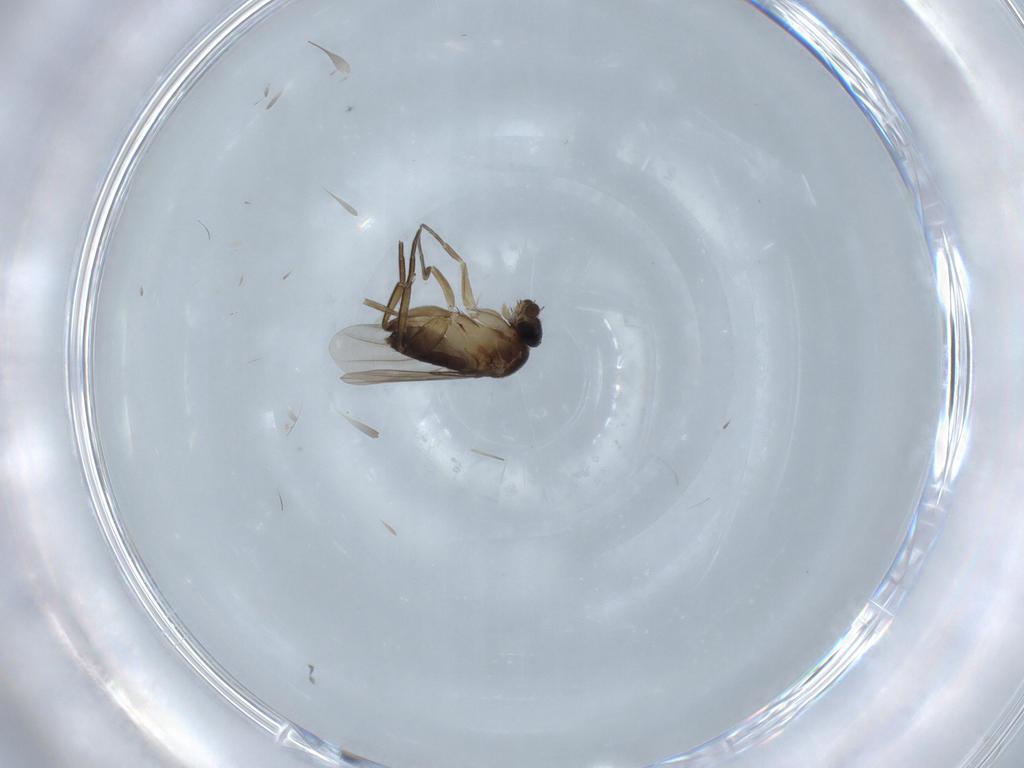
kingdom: Animalia
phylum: Arthropoda
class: Insecta
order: Diptera
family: Phoridae
